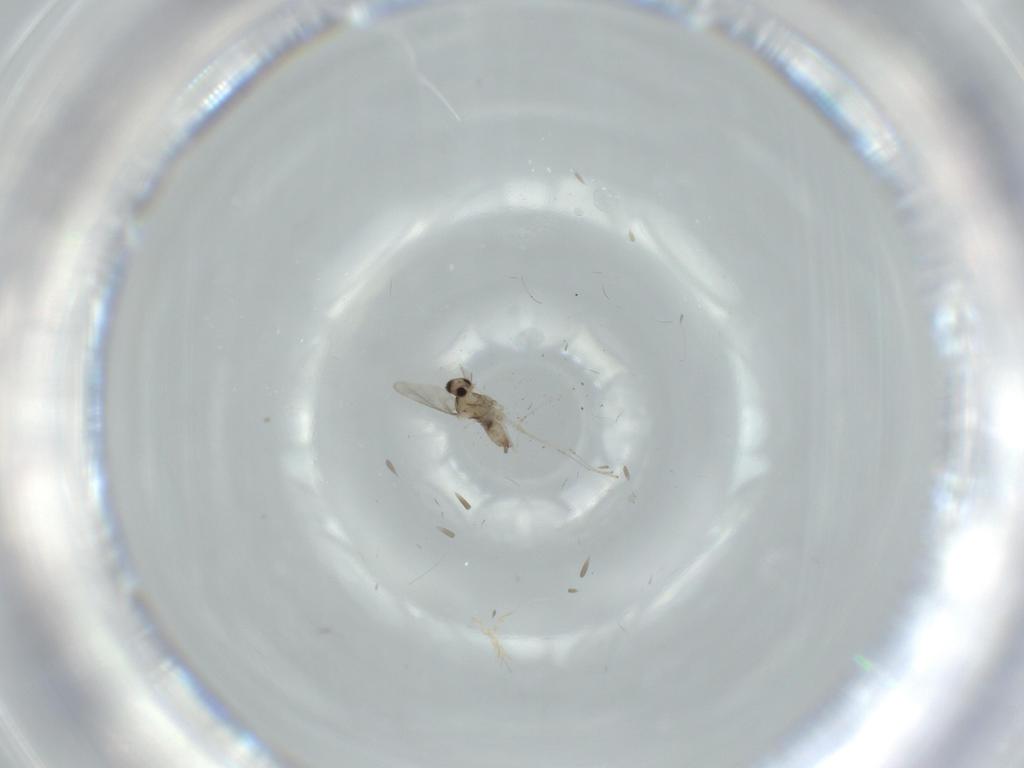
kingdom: Animalia
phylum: Arthropoda
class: Insecta
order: Diptera
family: Cecidomyiidae
